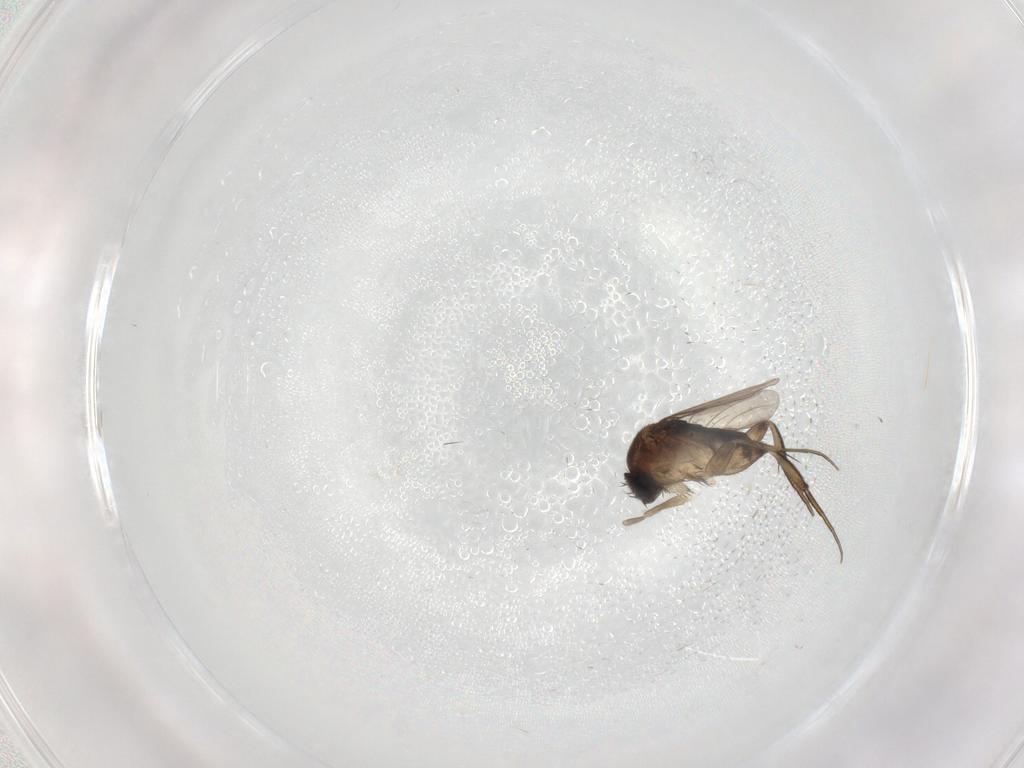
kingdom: Animalia
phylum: Arthropoda
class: Insecta
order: Diptera
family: Phoridae
